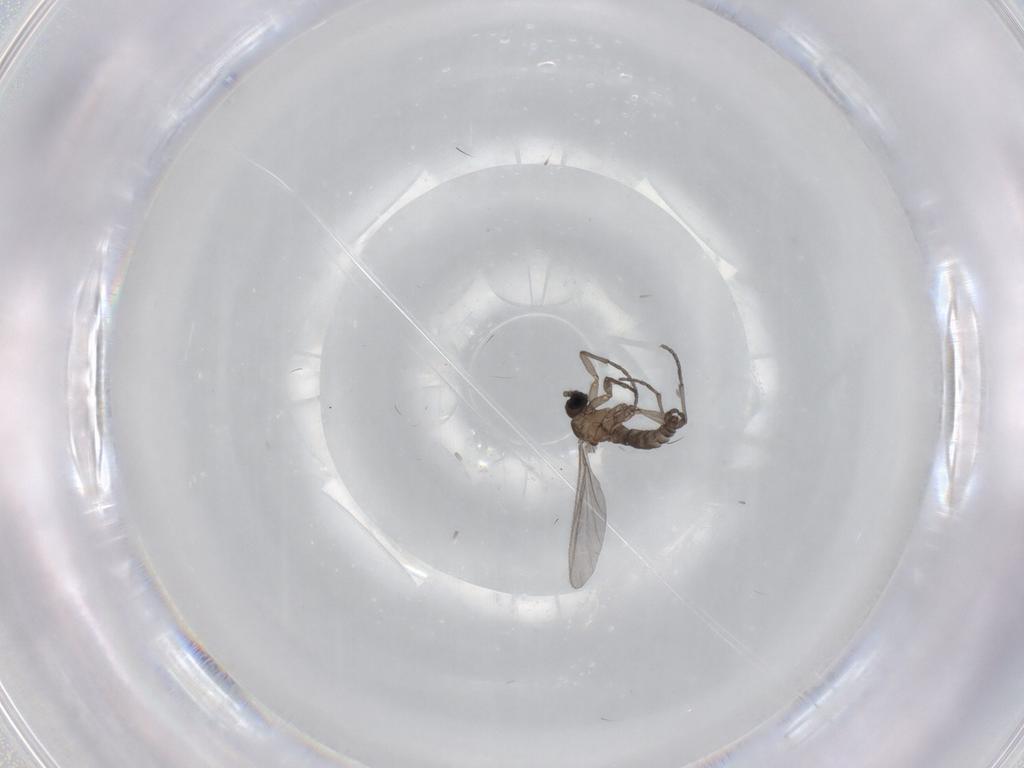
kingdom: Animalia
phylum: Arthropoda
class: Insecta
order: Diptera
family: Sciaridae
